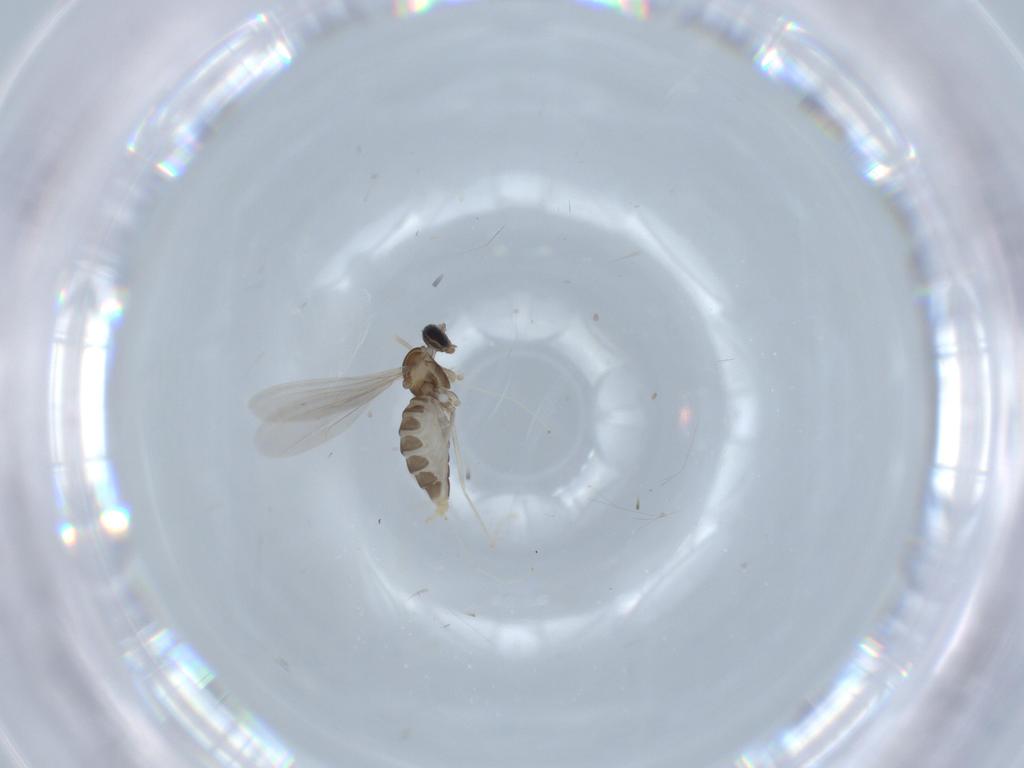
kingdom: Animalia
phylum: Arthropoda
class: Insecta
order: Diptera
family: Cecidomyiidae
